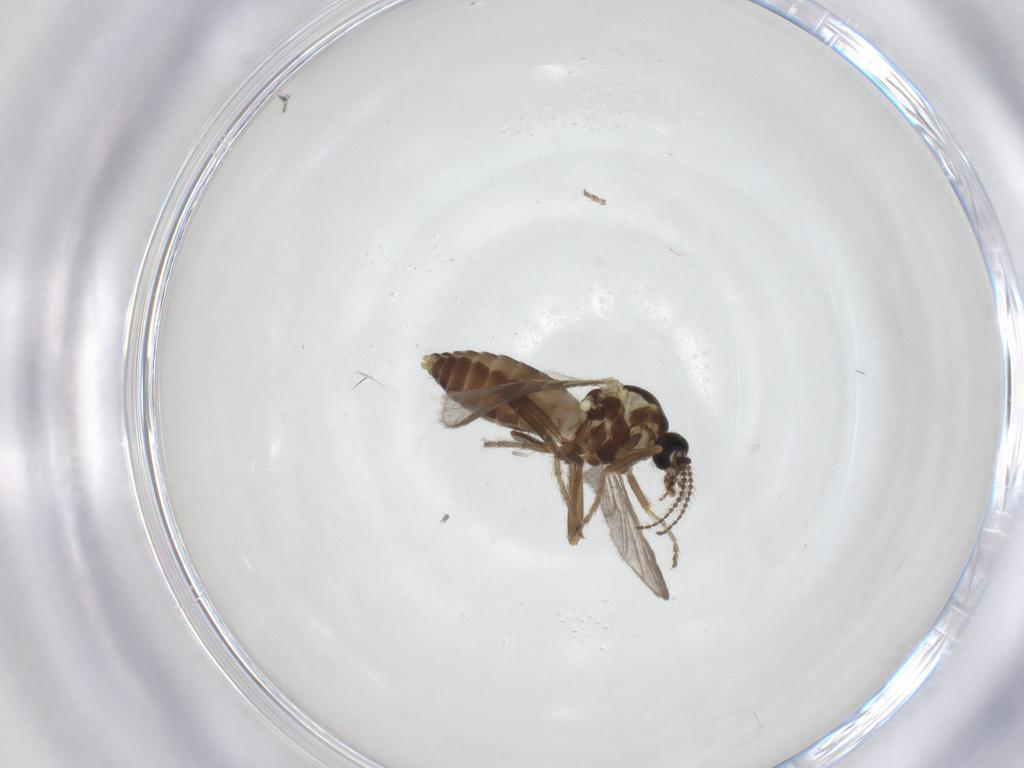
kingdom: Animalia
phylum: Arthropoda
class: Insecta
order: Diptera
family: Ceratopogonidae
